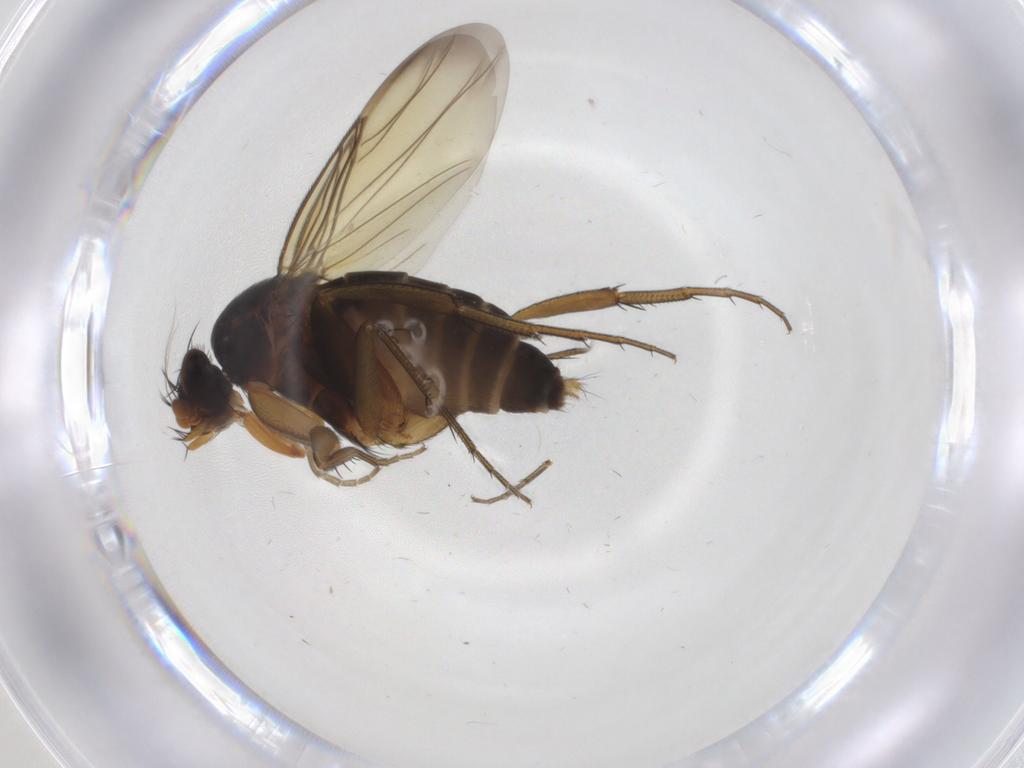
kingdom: Animalia
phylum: Arthropoda
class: Insecta
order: Diptera
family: Phoridae
